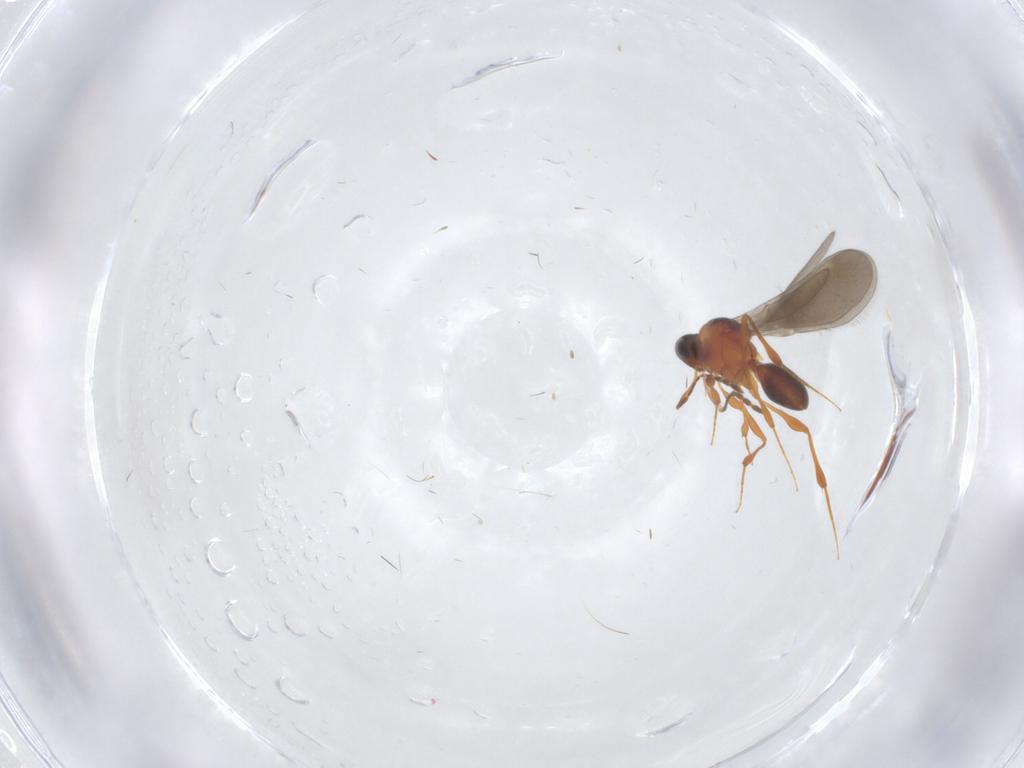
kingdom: Animalia
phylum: Arthropoda
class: Insecta
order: Hymenoptera
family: Platygastridae
